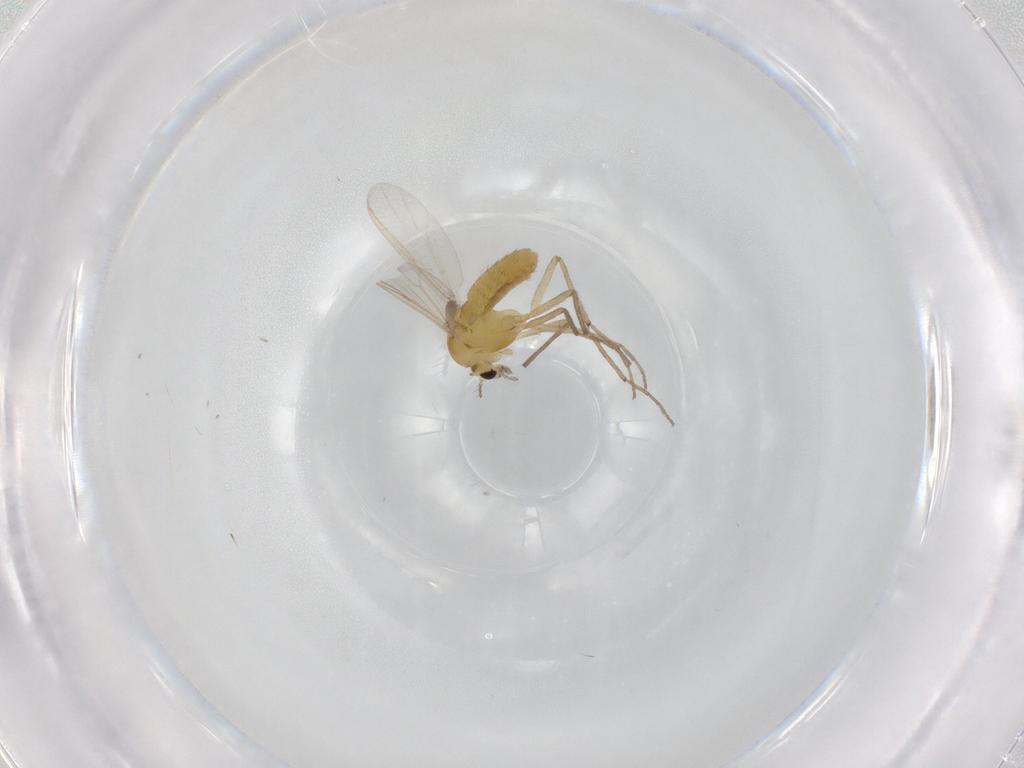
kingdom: Animalia
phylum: Arthropoda
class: Insecta
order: Diptera
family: Chironomidae
